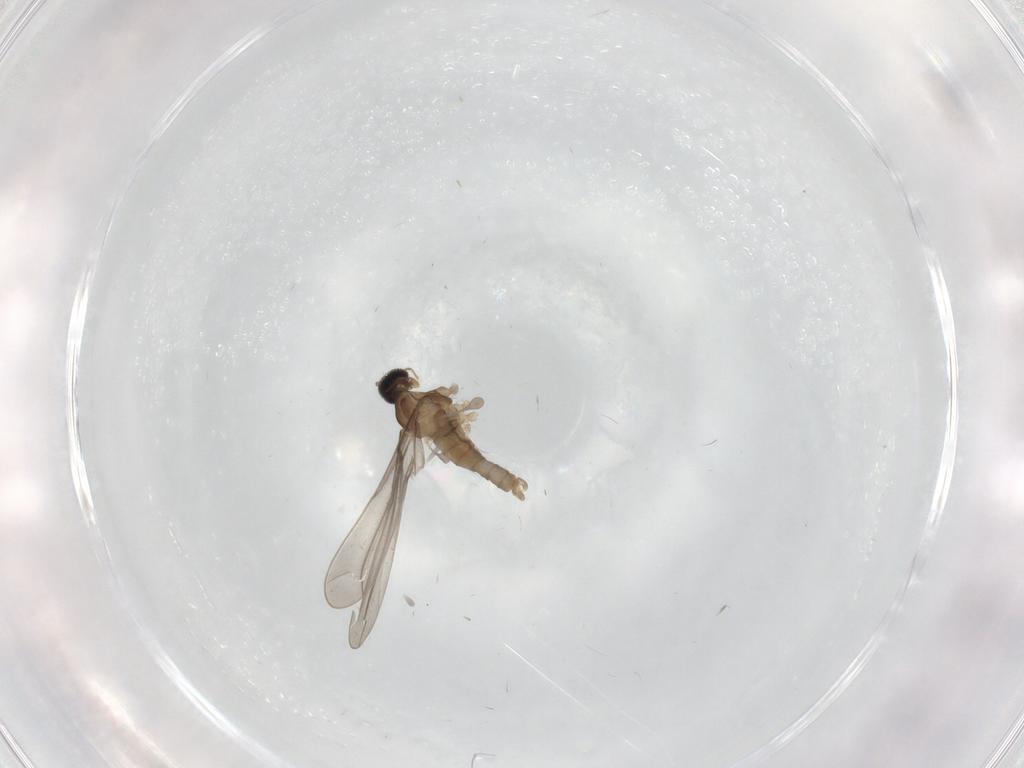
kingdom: Animalia
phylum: Arthropoda
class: Insecta
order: Diptera
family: Cecidomyiidae
